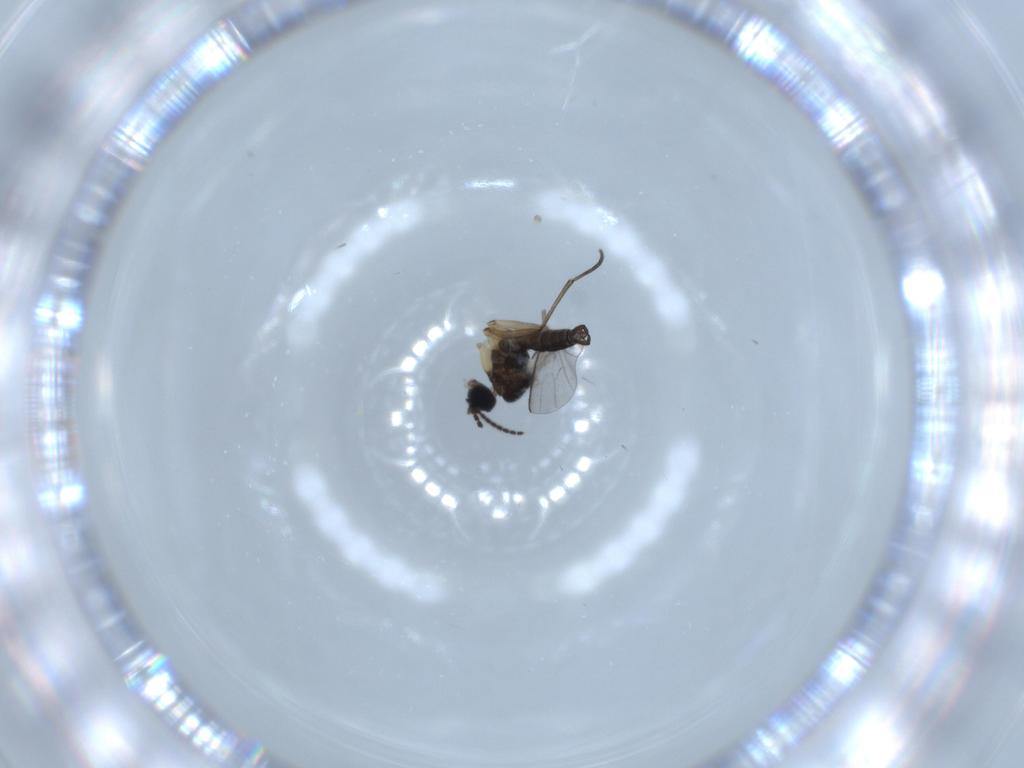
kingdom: Animalia
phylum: Arthropoda
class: Insecta
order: Diptera
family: Sciaridae
